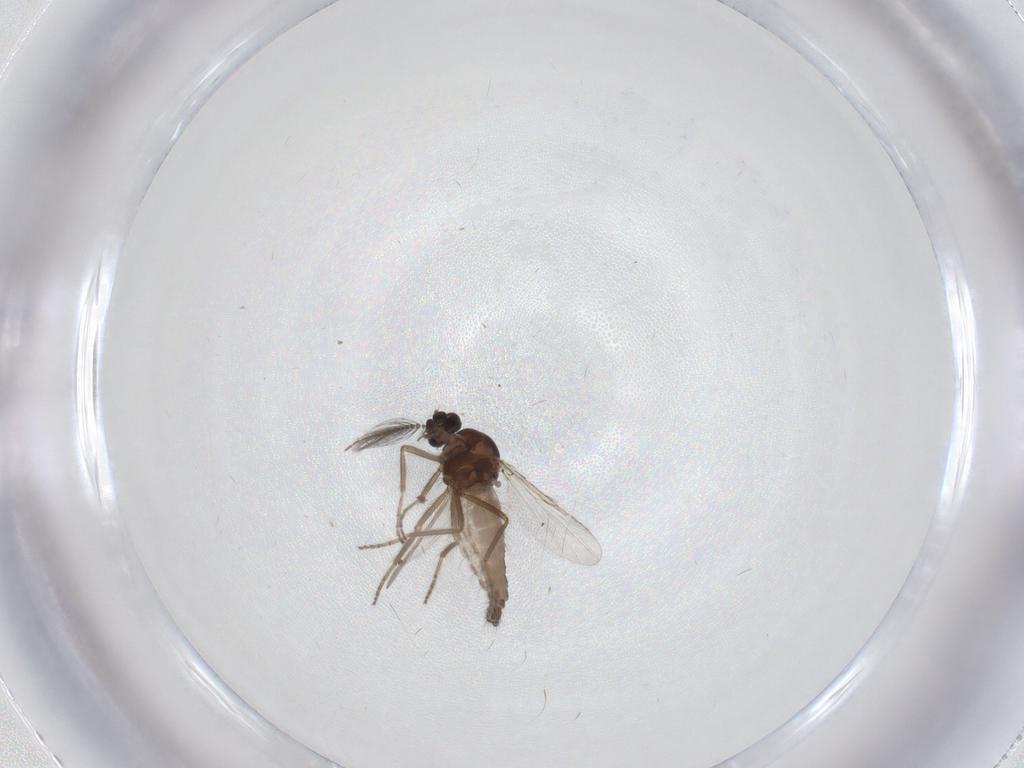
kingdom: Animalia
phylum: Arthropoda
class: Insecta
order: Diptera
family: Ceratopogonidae
